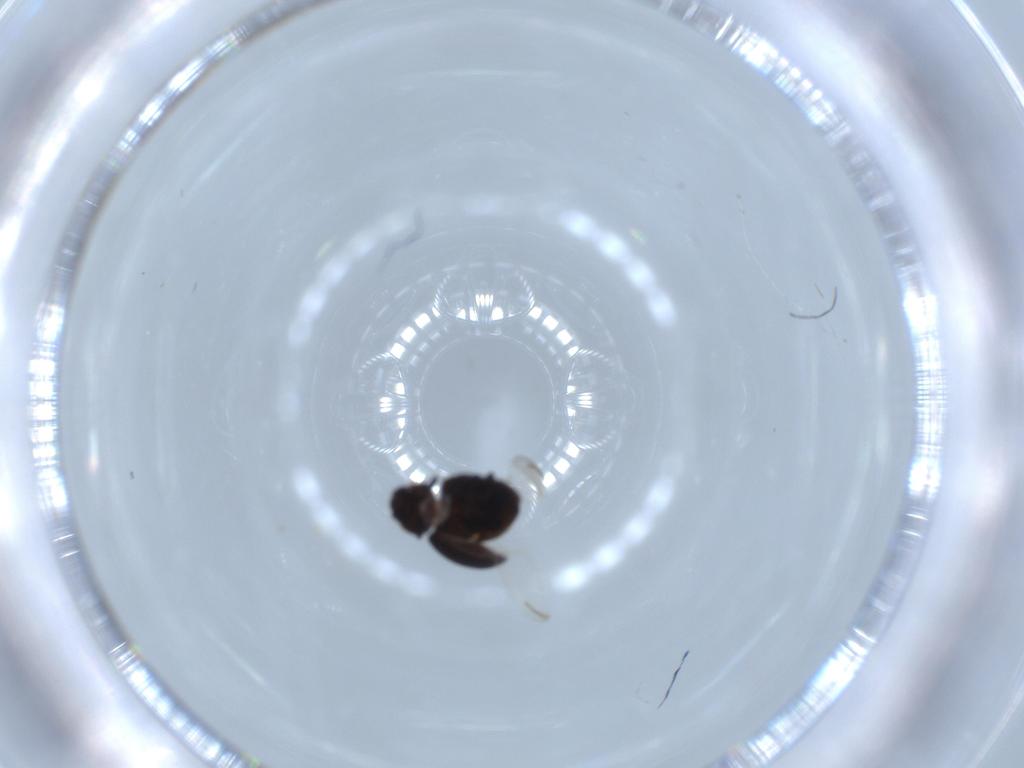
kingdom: Animalia
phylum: Arthropoda
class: Insecta
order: Coleoptera
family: Coccinellidae
